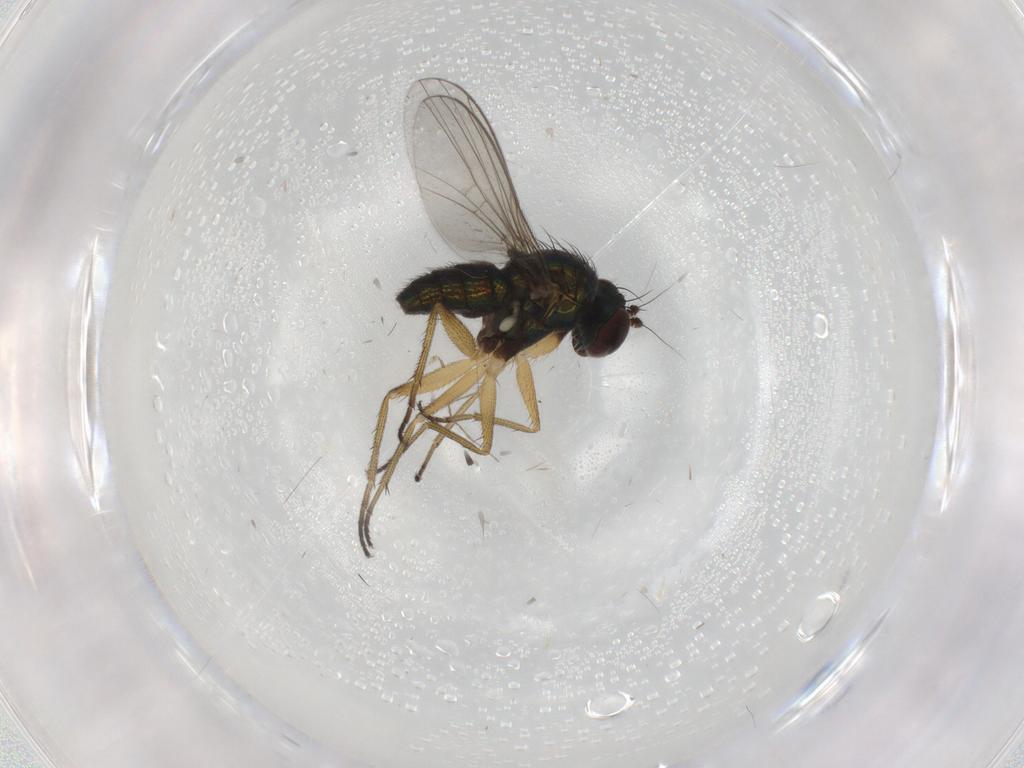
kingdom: Animalia
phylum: Arthropoda
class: Insecta
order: Diptera
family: Dolichopodidae
